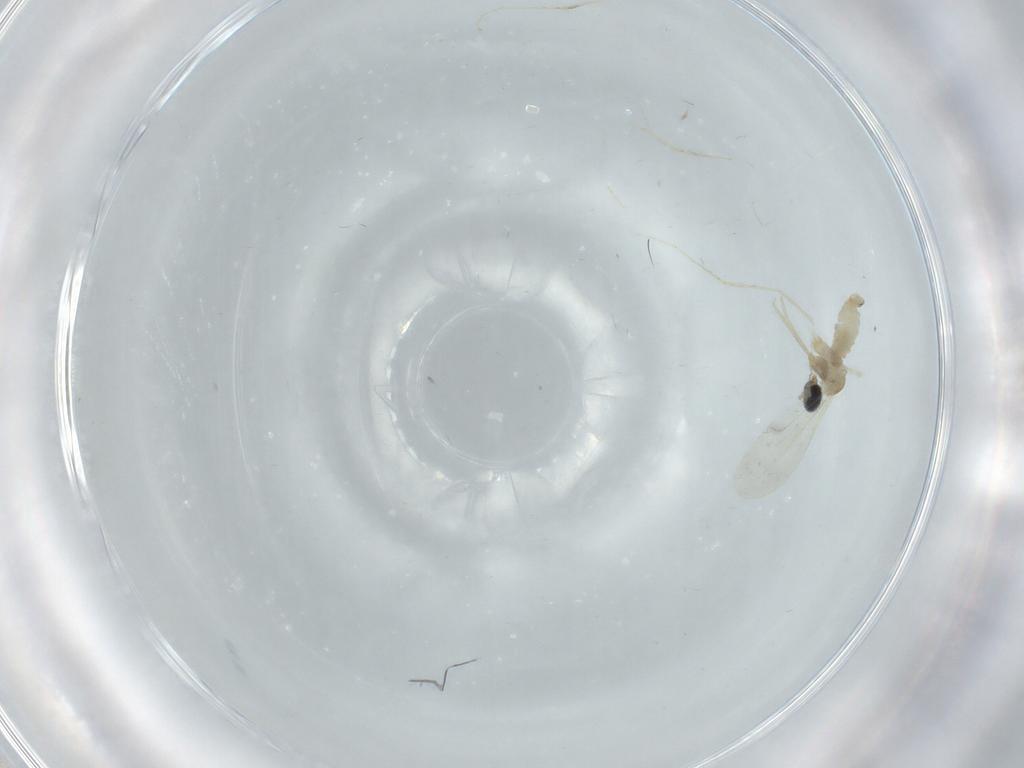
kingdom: Animalia
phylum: Arthropoda
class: Insecta
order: Diptera
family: Cecidomyiidae
